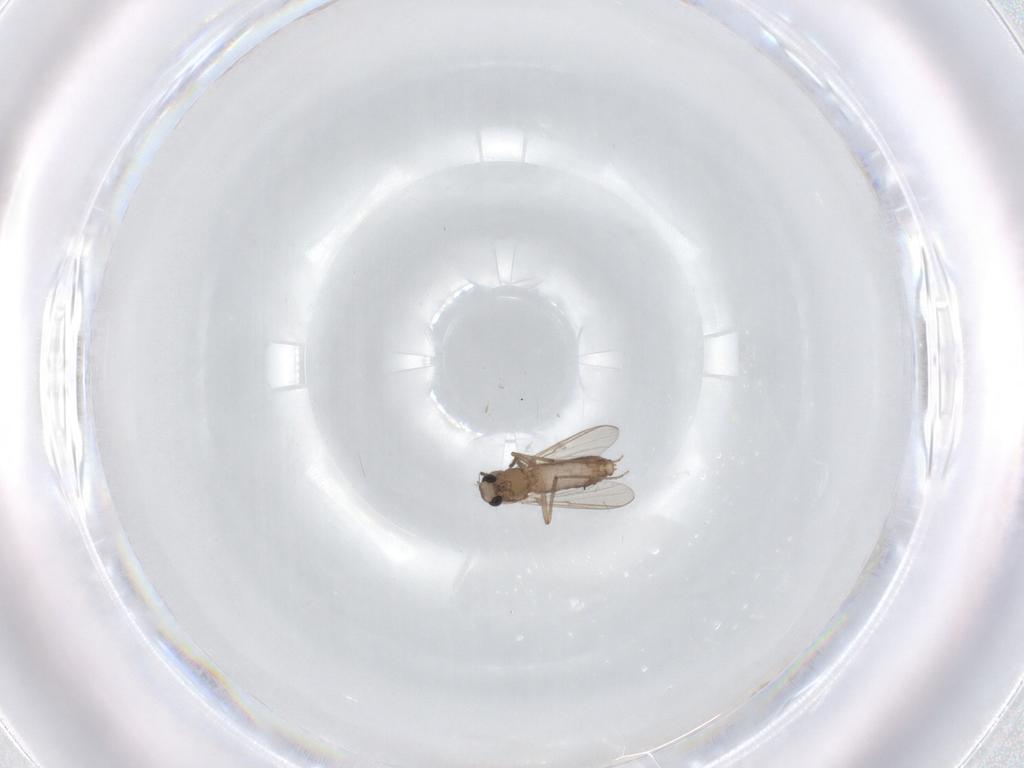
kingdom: Animalia
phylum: Arthropoda
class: Insecta
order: Diptera
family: Chironomidae
